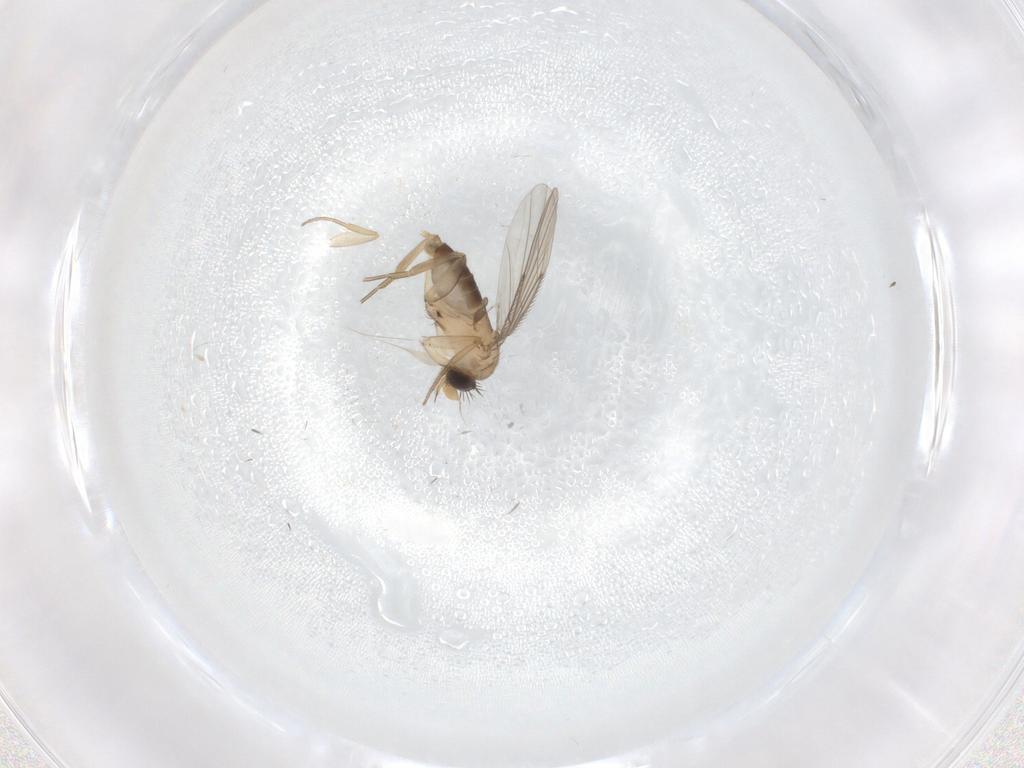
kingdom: Animalia
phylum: Arthropoda
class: Insecta
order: Diptera
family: Phoridae
